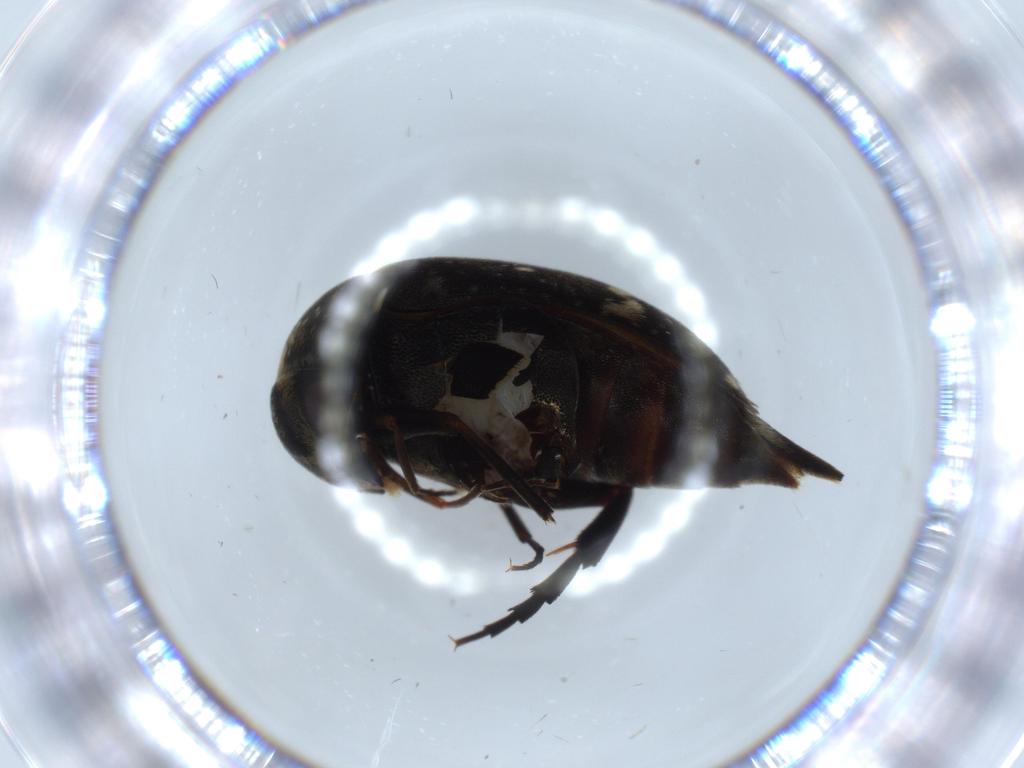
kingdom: Animalia
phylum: Arthropoda
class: Insecta
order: Coleoptera
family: Chrysomelidae
